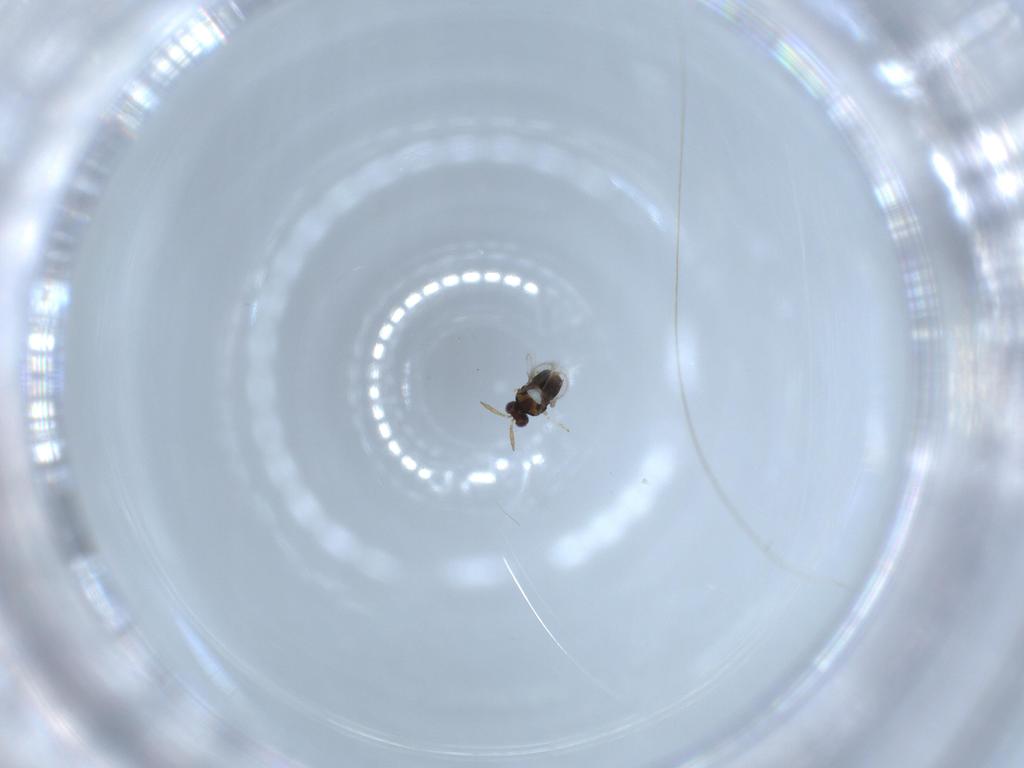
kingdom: Animalia
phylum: Arthropoda
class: Insecta
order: Hymenoptera
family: Aphelinidae
